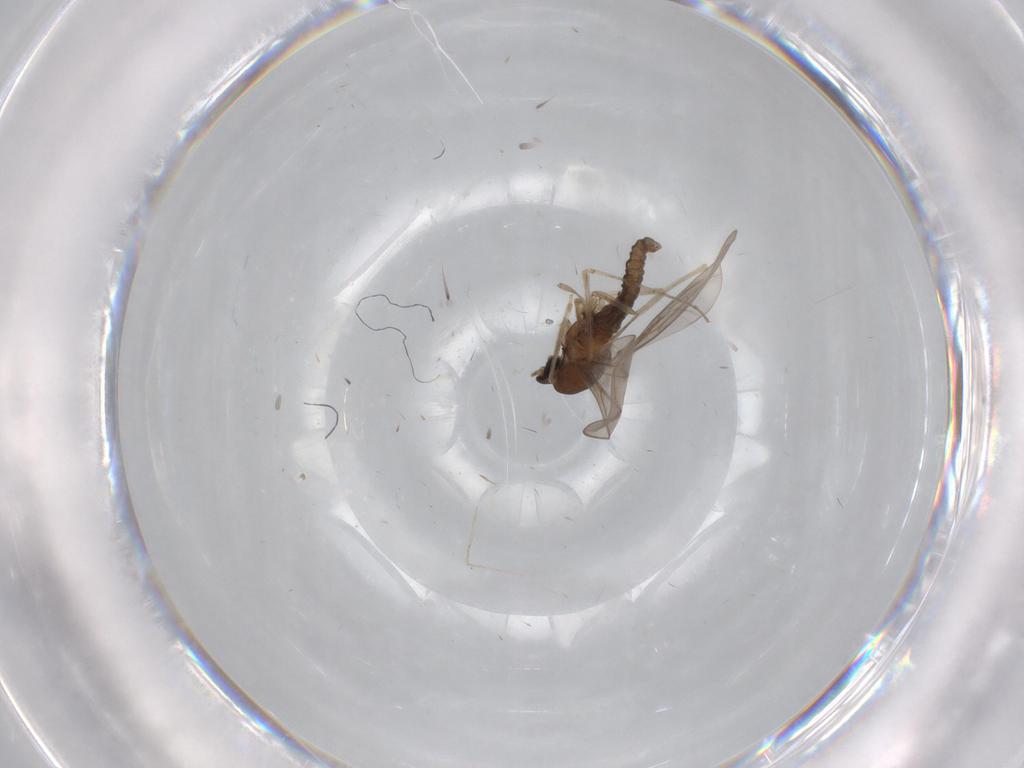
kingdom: Animalia
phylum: Arthropoda
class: Insecta
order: Diptera
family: Cecidomyiidae
